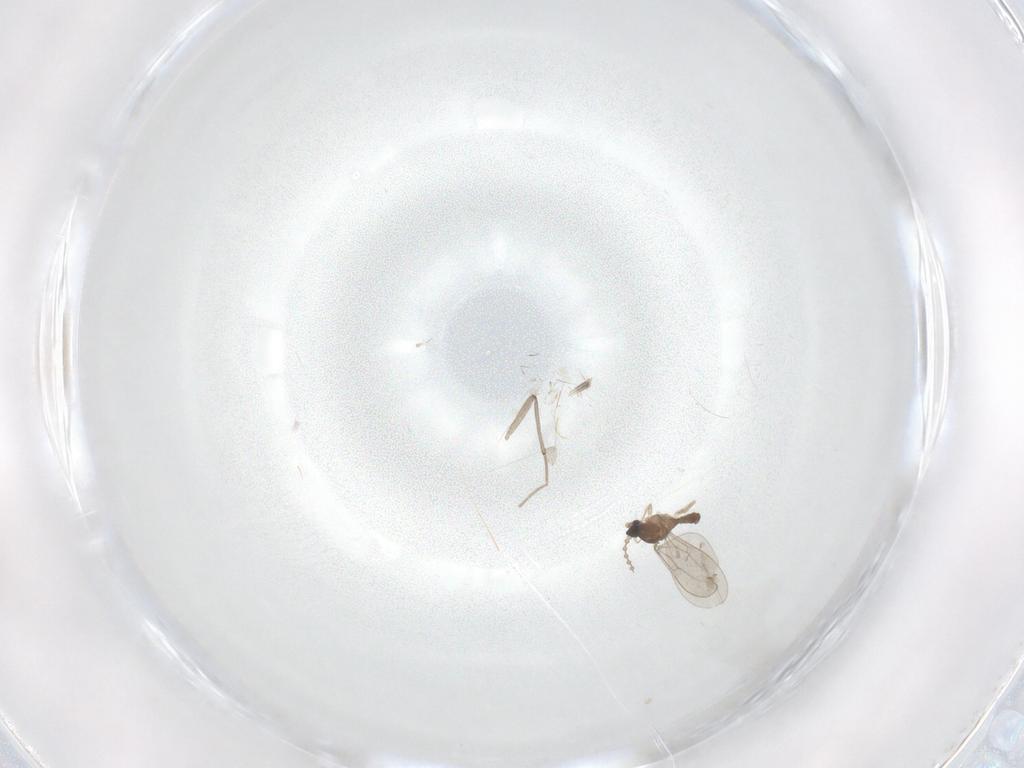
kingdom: Animalia
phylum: Arthropoda
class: Insecta
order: Diptera
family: Cecidomyiidae
